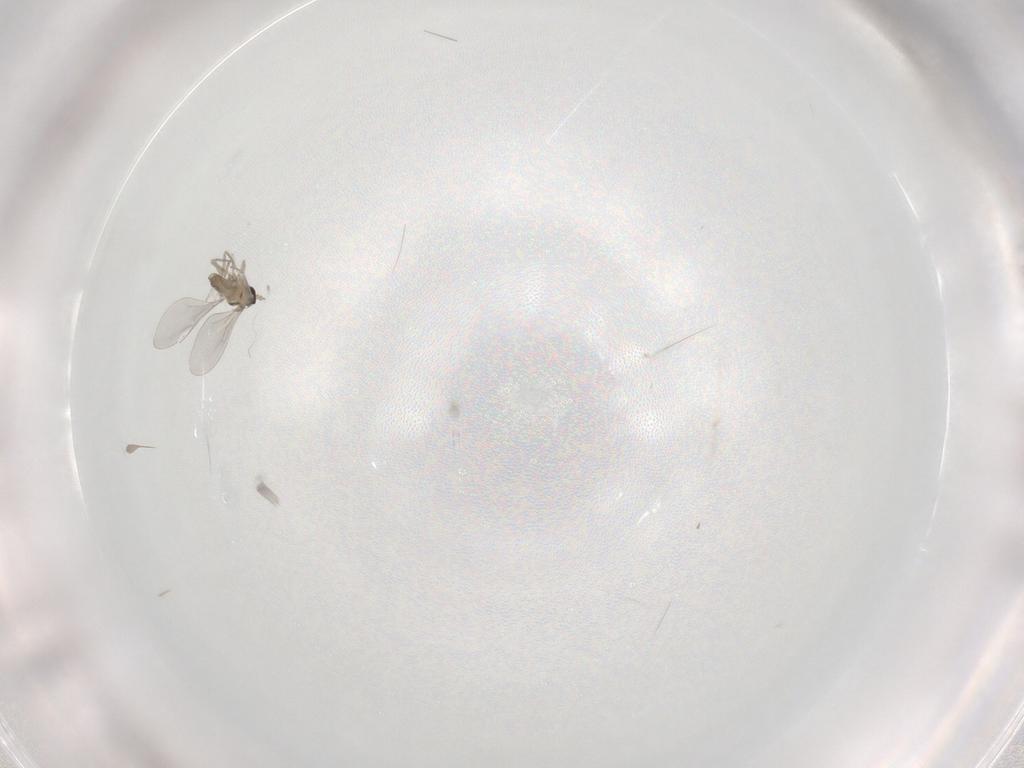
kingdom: Animalia
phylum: Arthropoda
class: Insecta
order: Diptera
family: Cecidomyiidae
